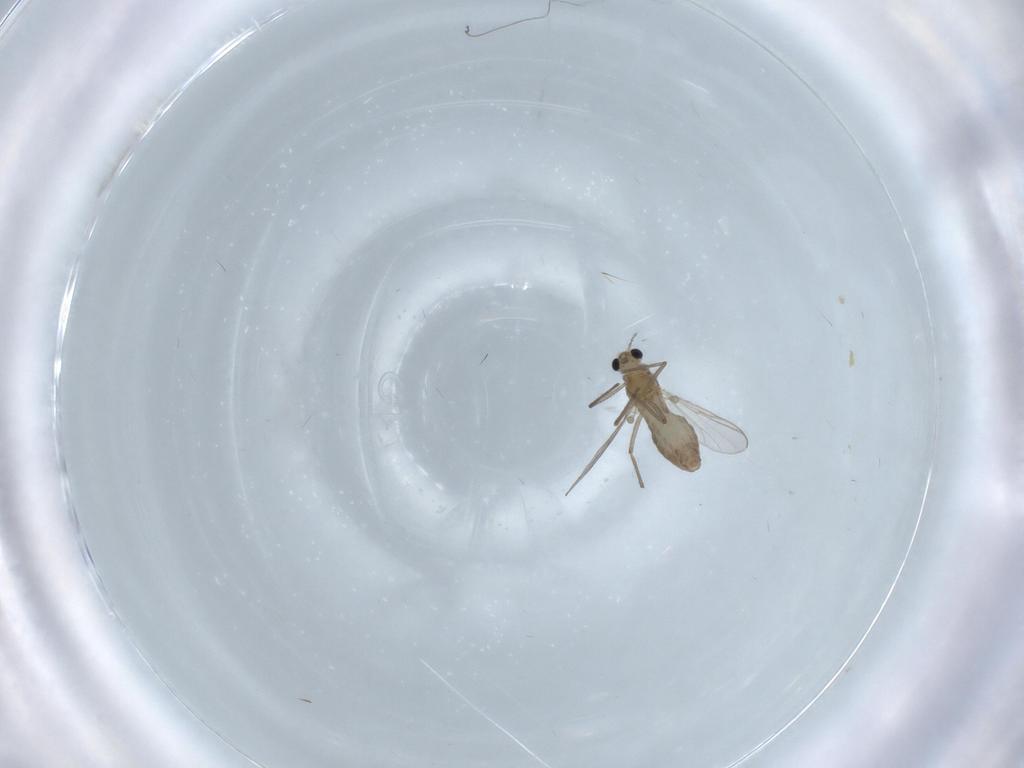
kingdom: Animalia
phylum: Arthropoda
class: Insecta
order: Diptera
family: Chironomidae
